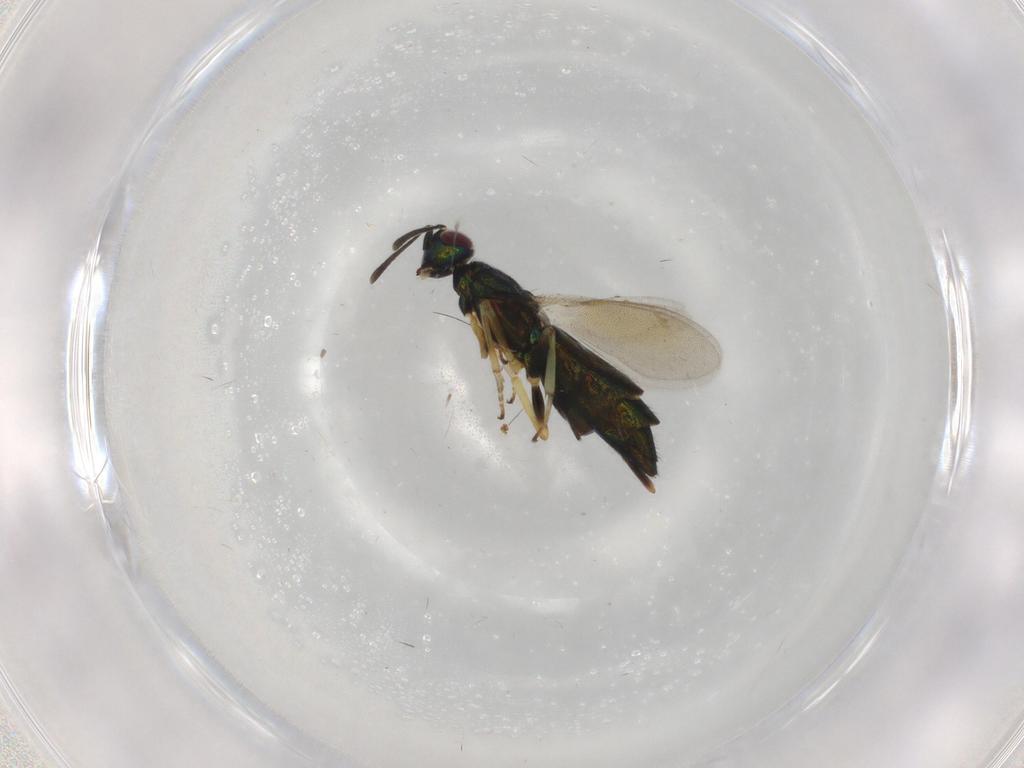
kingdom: Animalia
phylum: Arthropoda
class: Insecta
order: Hymenoptera
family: Eupelmidae
